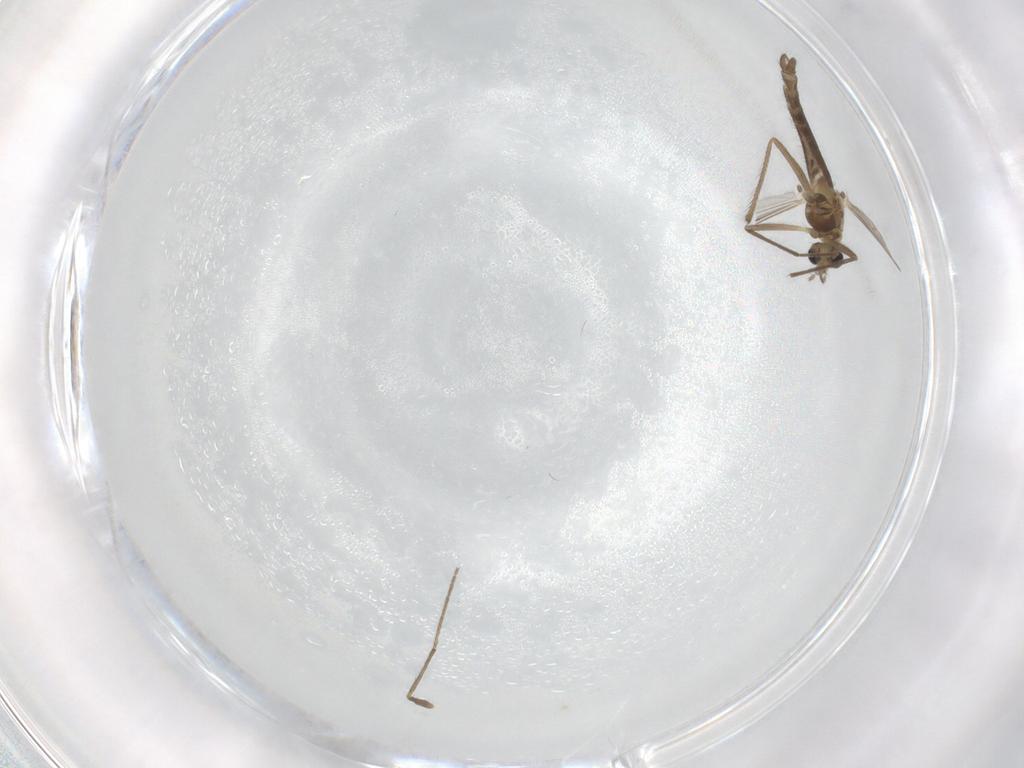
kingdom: Animalia
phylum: Arthropoda
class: Insecta
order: Diptera
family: Chironomidae
